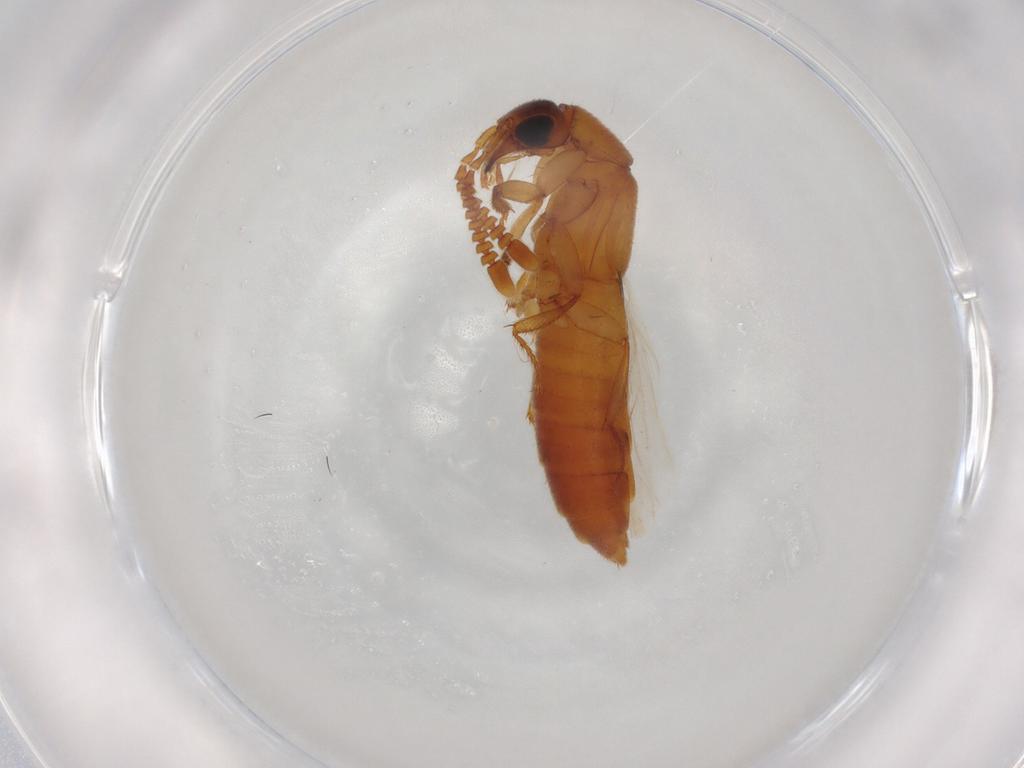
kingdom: Animalia
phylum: Arthropoda
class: Insecta
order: Coleoptera
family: Staphylinidae
